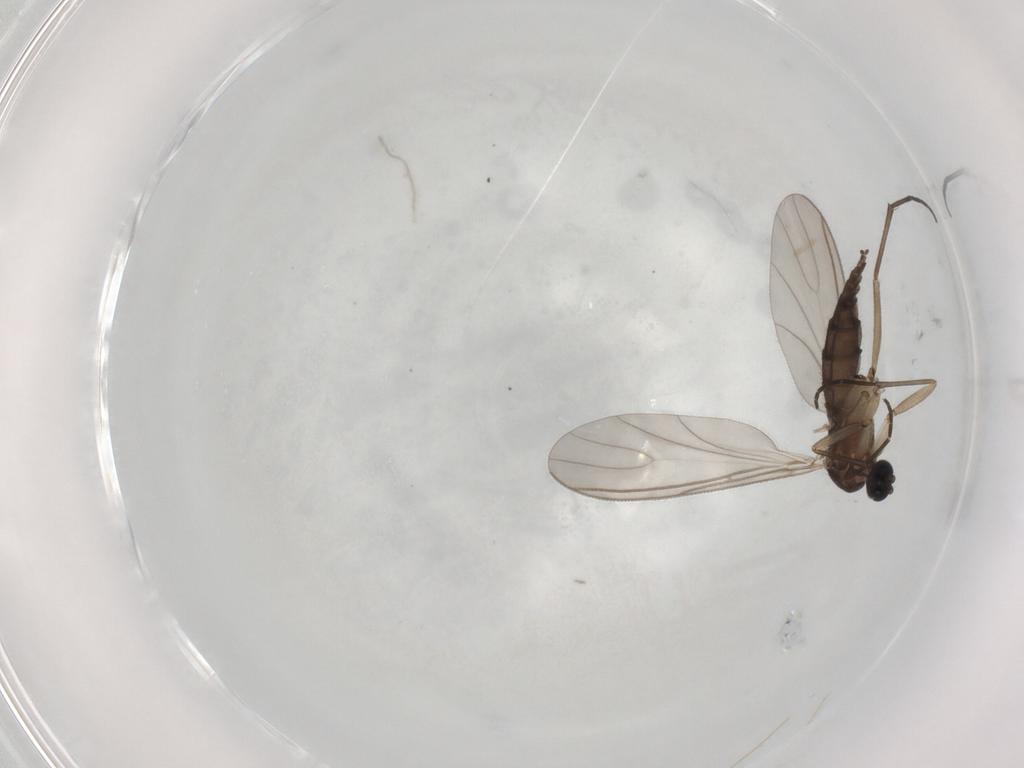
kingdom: Animalia
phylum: Arthropoda
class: Insecta
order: Diptera
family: Sciaridae
